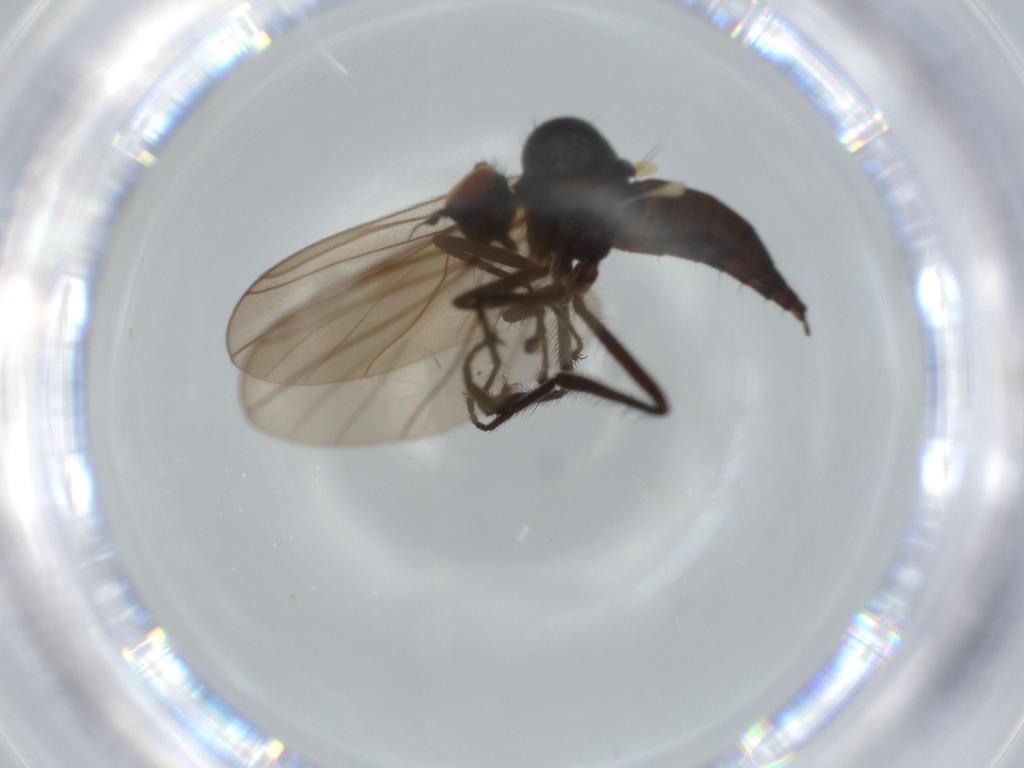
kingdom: Animalia
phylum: Arthropoda
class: Insecta
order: Diptera
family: Hybotidae
